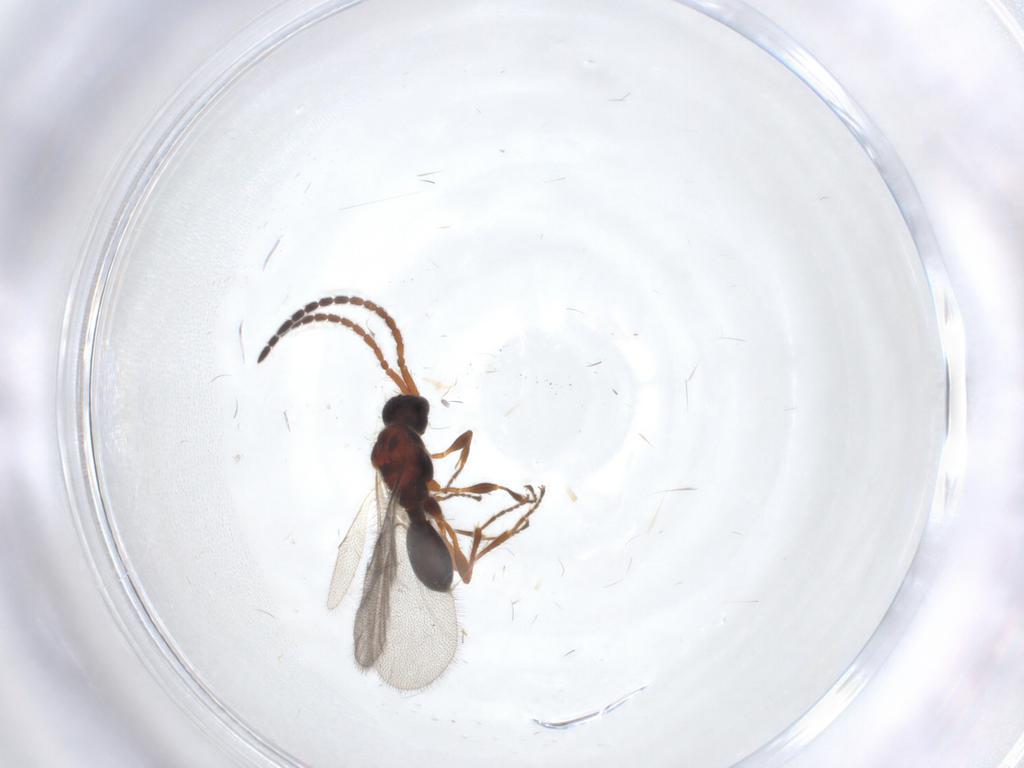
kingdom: Animalia
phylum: Arthropoda
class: Insecta
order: Hymenoptera
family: Diapriidae
